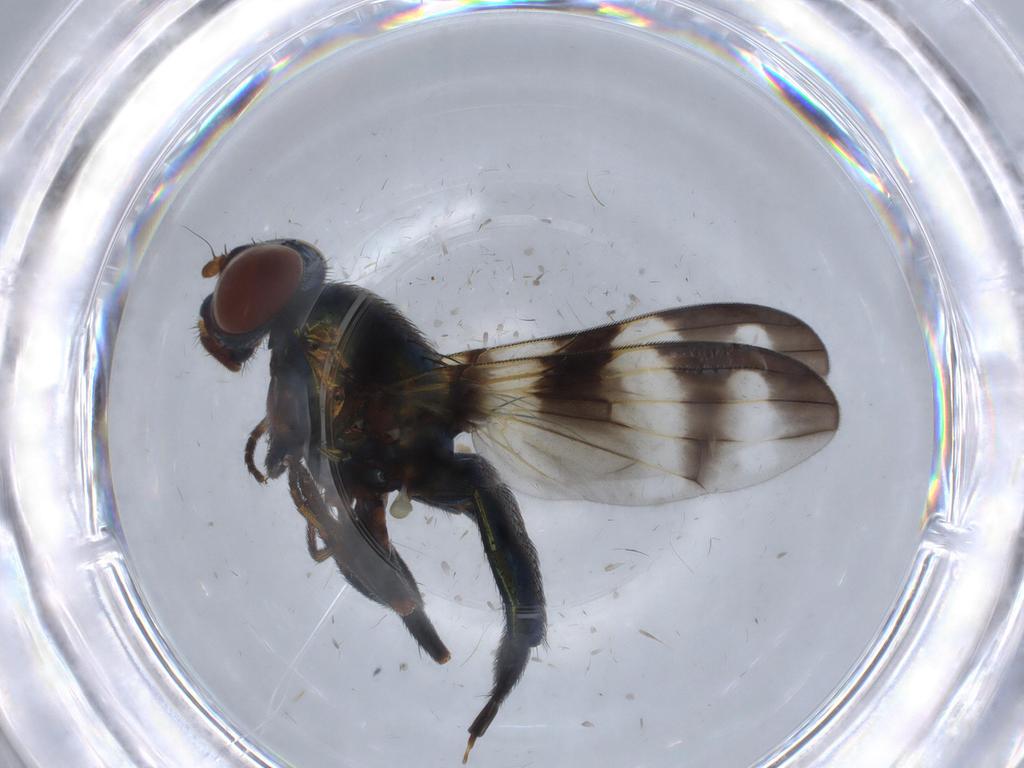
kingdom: Animalia
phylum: Arthropoda
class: Insecta
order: Diptera
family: Ulidiidae
